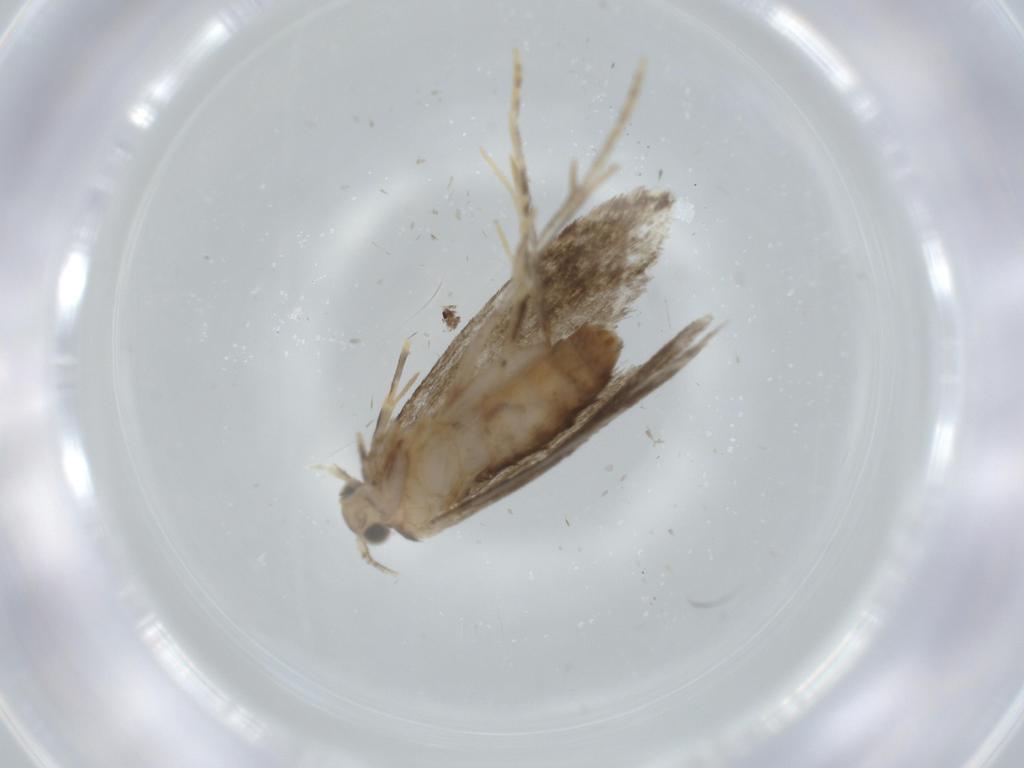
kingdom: Animalia
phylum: Arthropoda
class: Insecta
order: Lepidoptera
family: Tineidae
